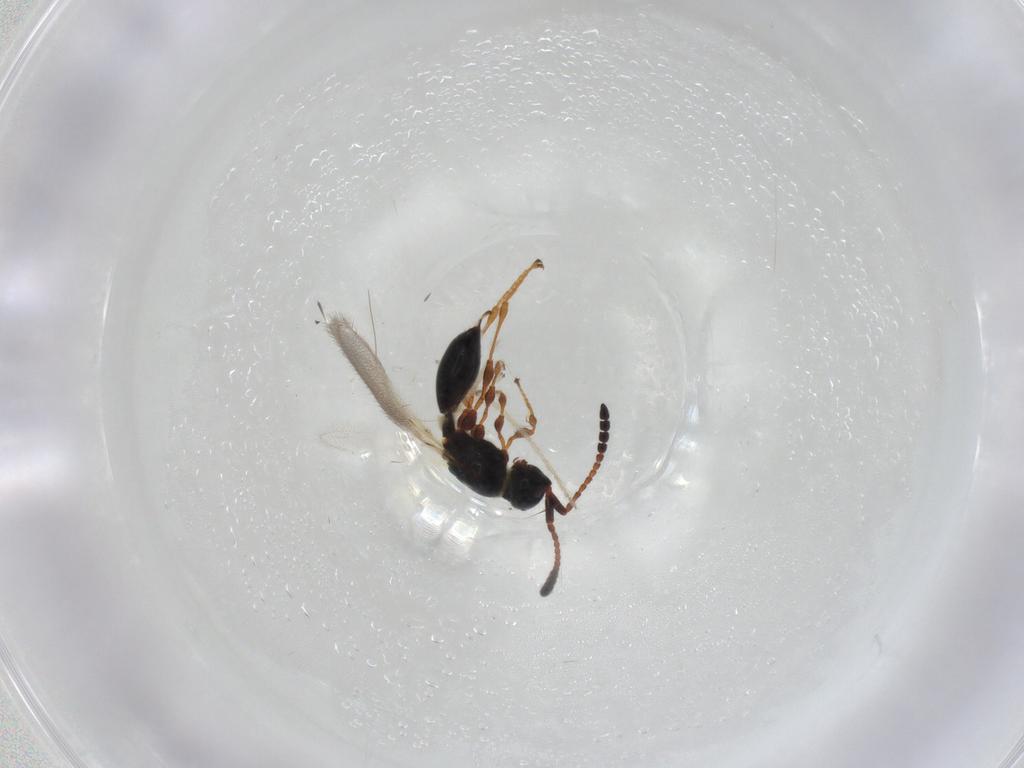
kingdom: Animalia
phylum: Arthropoda
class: Insecta
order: Hymenoptera
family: Diapriidae
